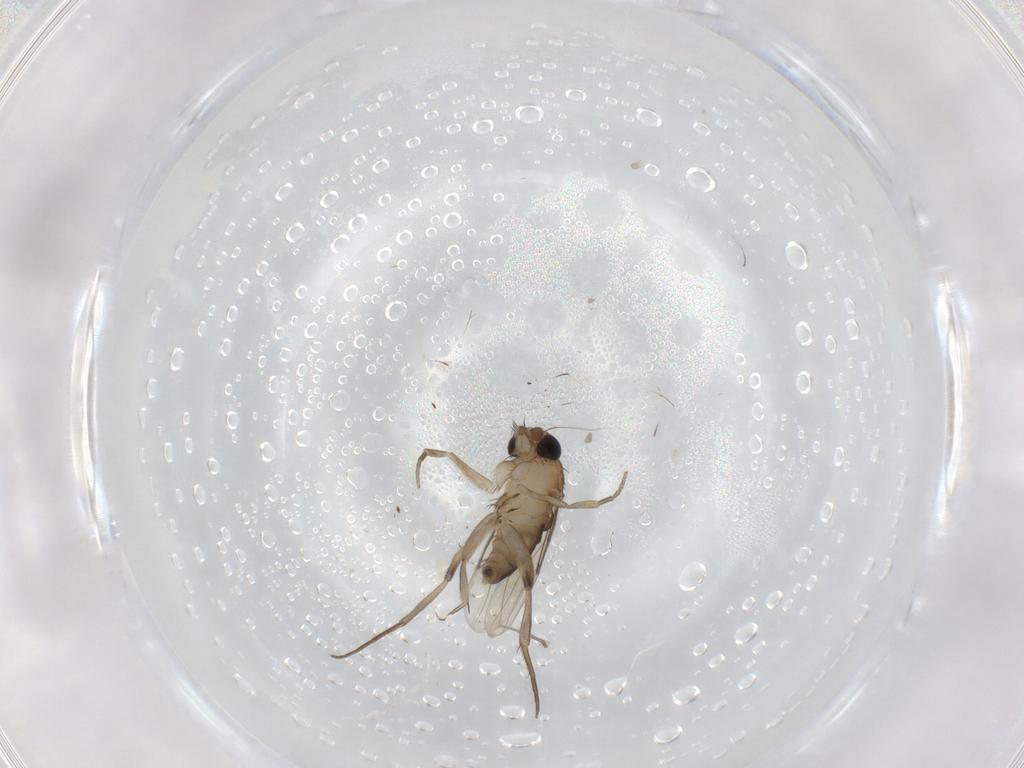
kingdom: Animalia
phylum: Arthropoda
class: Insecta
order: Diptera
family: Phoridae
